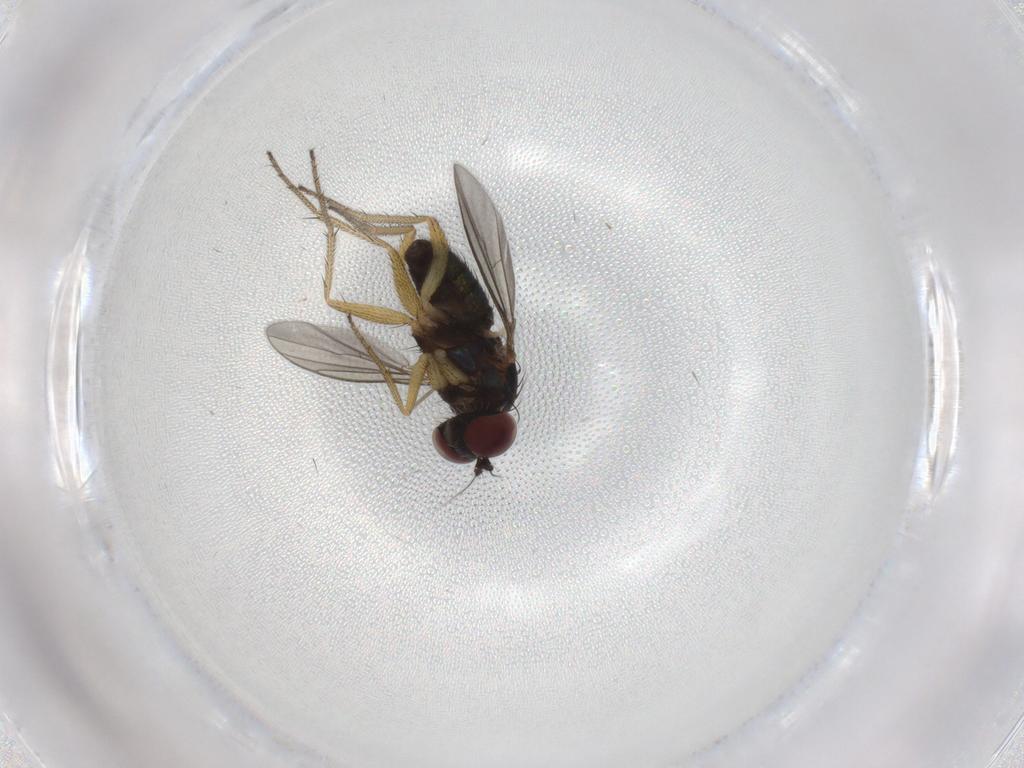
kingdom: Animalia
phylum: Arthropoda
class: Insecta
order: Diptera
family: Dolichopodidae
